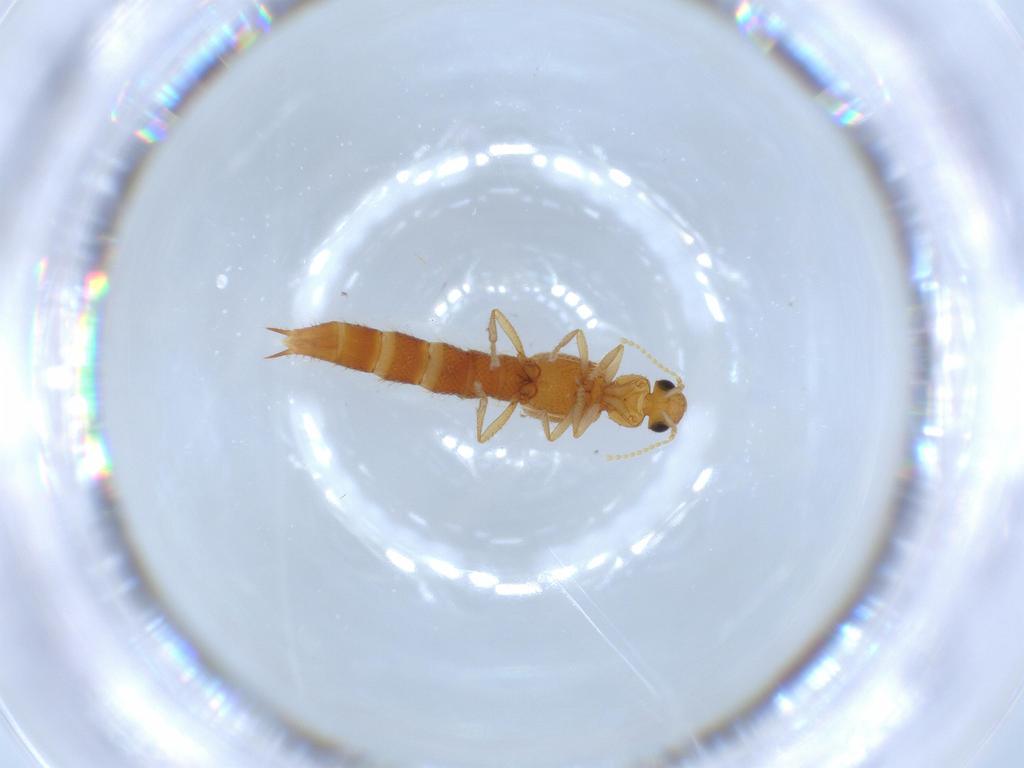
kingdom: Animalia
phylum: Arthropoda
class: Insecta
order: Coleoptera
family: Staphylinidae
